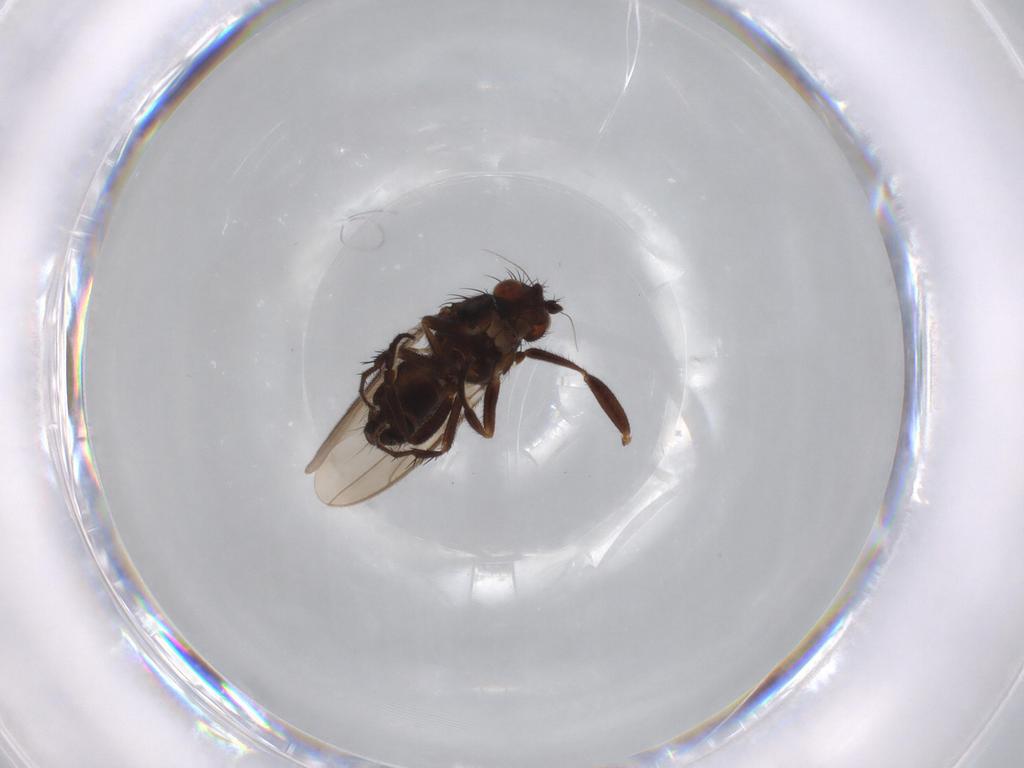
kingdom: Animalia
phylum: Arthropoda
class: Insecta
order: Diptera
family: Sphaeroceridae
